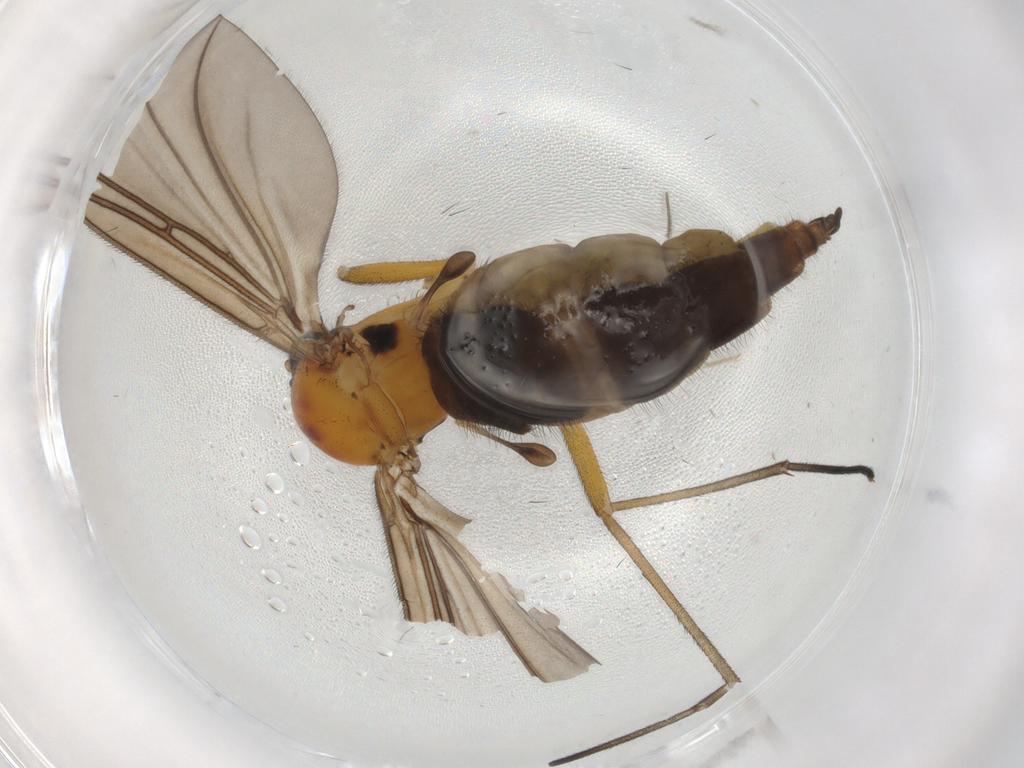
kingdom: Animalia
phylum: Arthropoda
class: Insecta
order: Diptera
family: Sciaridae
